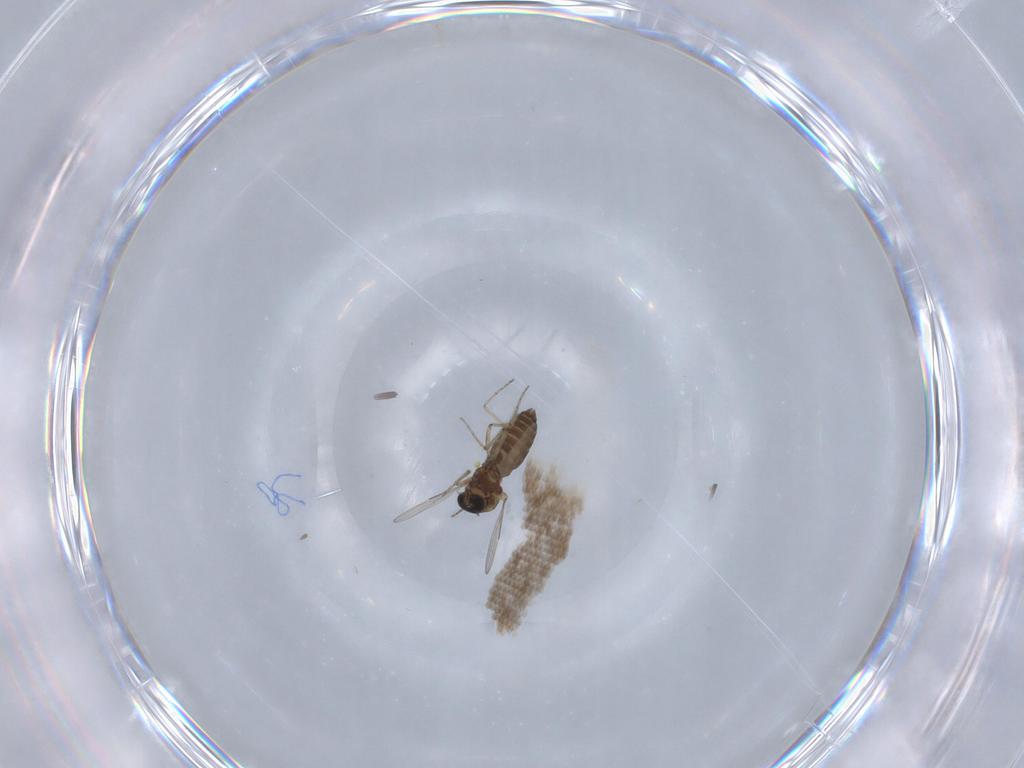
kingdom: Animalia
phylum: Arthropoda
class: Insecta
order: Diptera
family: Ceratopogonidae
